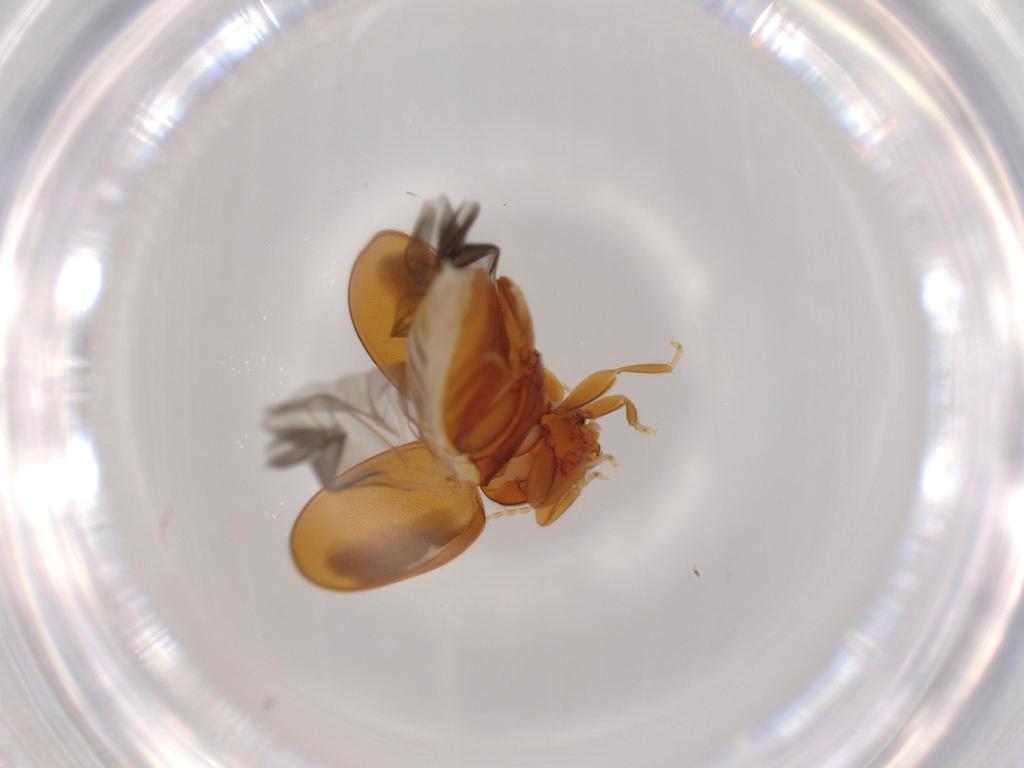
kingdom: Animalia
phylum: Arthropoda
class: Insecta
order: Coleoptera
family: Scirtidae
